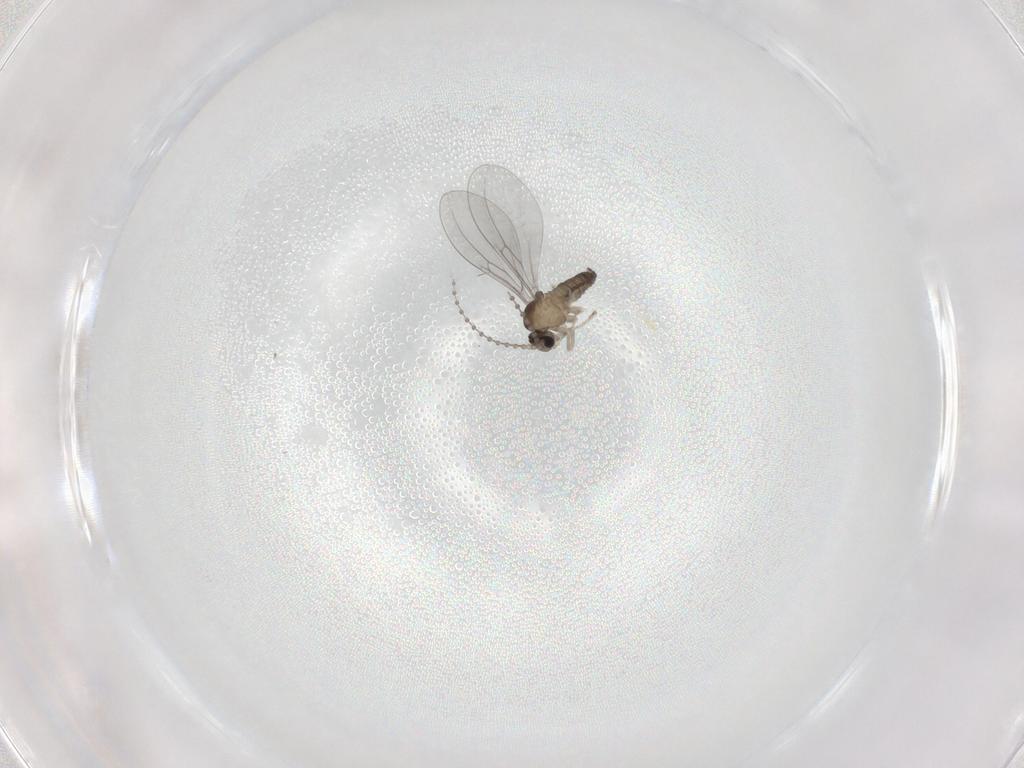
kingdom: Animalia
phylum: Arthropoda
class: Insecta
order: Diptera
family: Cecidomyiidae
